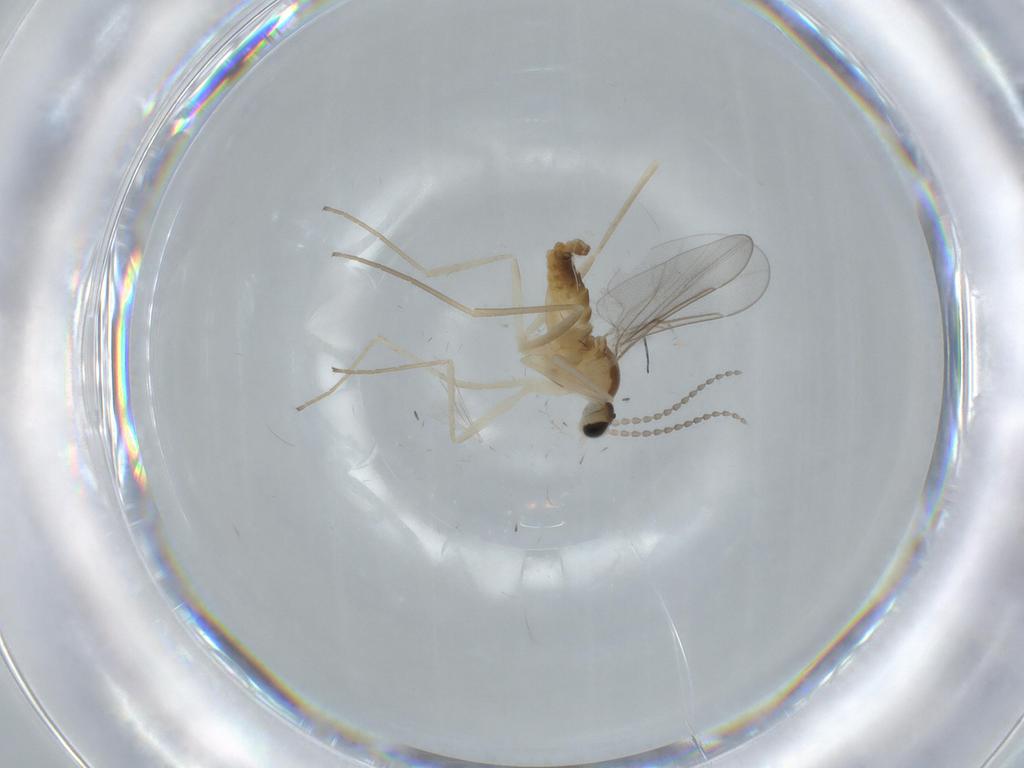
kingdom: Animalia
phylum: Arthropoda
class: Insecta
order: Diptera
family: Cecidomyiidae
